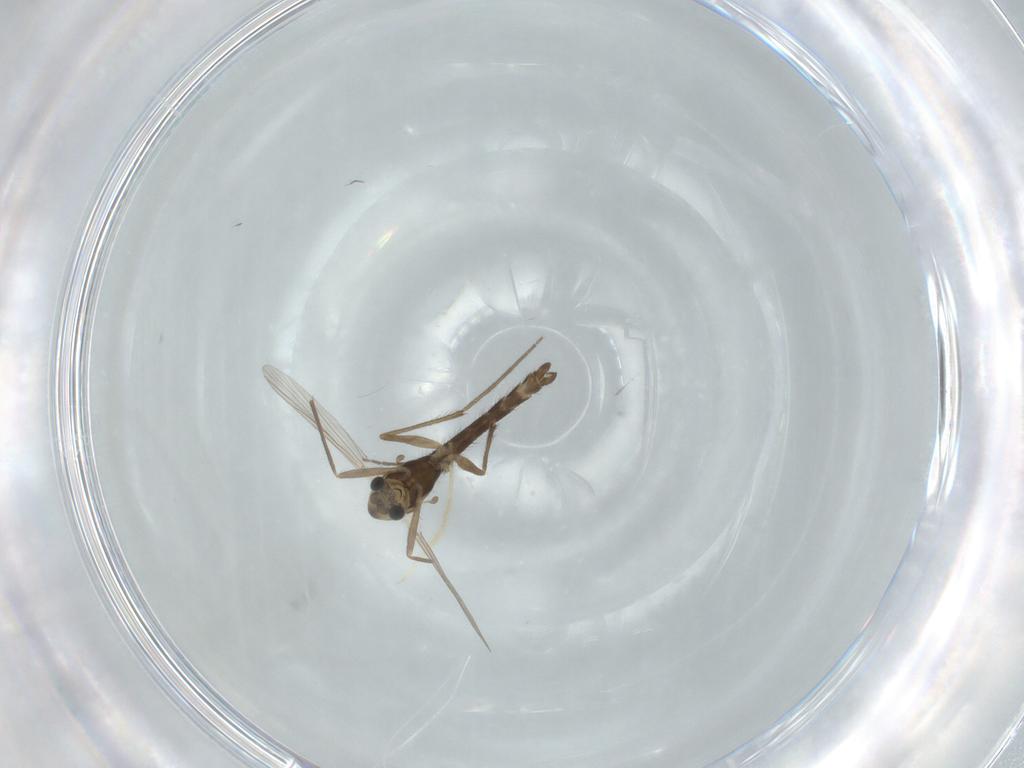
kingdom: Animalia
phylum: Arthropoda
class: Insecta
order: Diptera
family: Chironomidae
